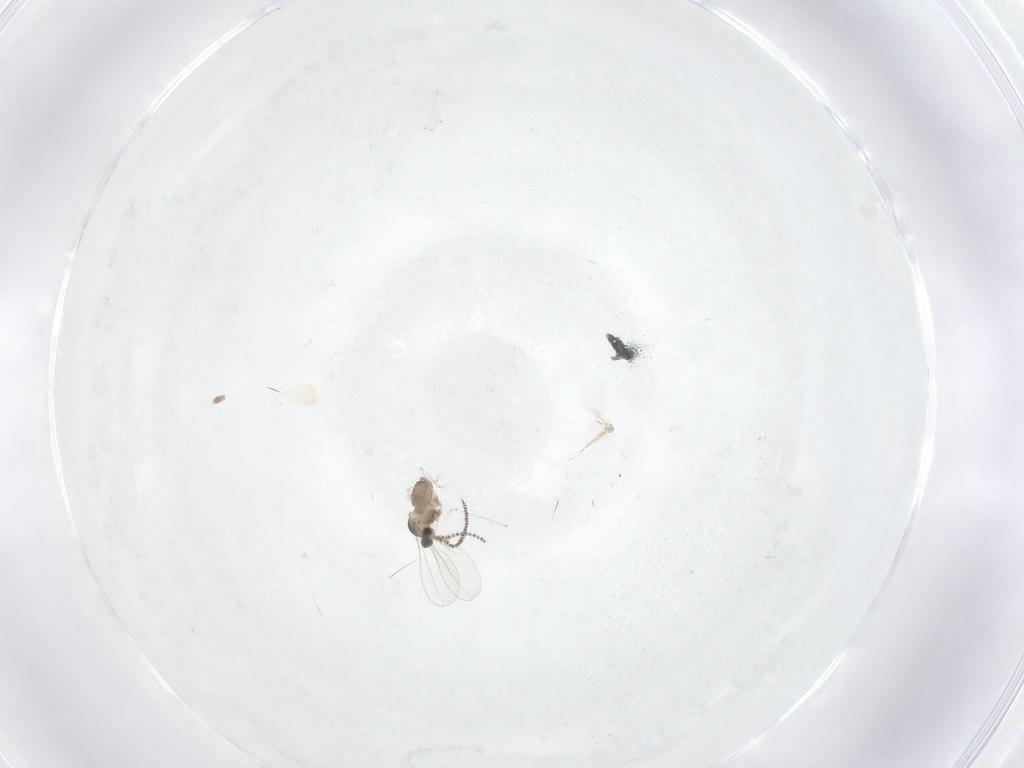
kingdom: Animalia
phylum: Arthropoda
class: Insecta
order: Diptera
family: Cecidomyiidae
